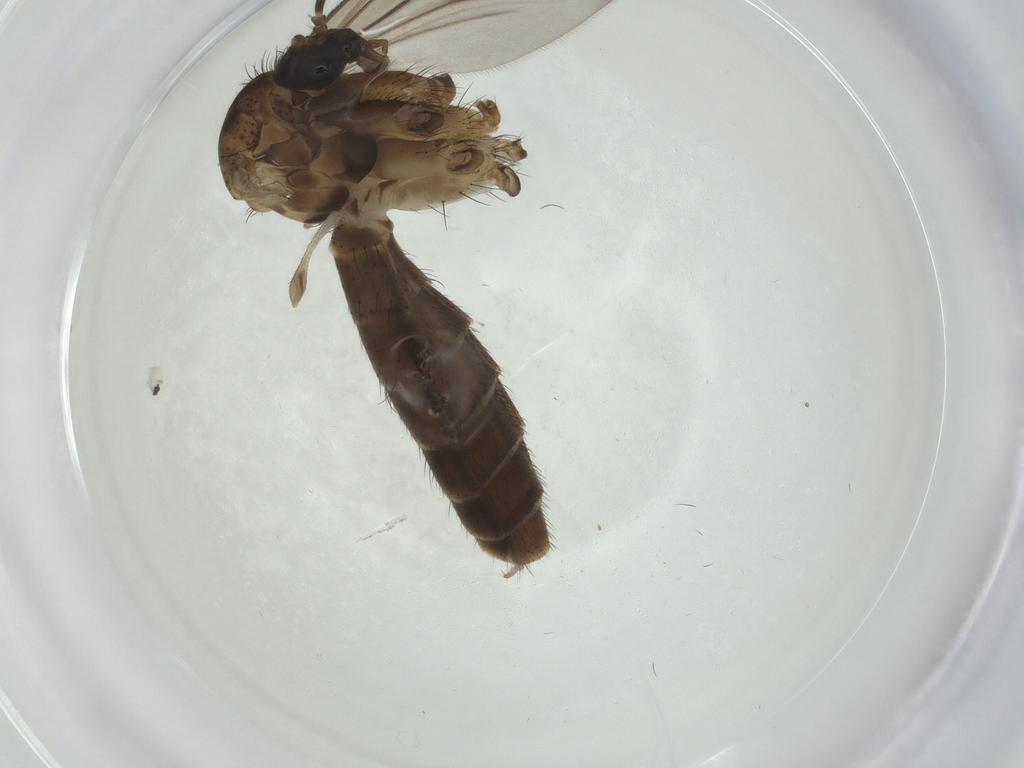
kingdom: Animalia
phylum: Arthropoda
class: Insecta
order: Diptera
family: Mycetophilidae
